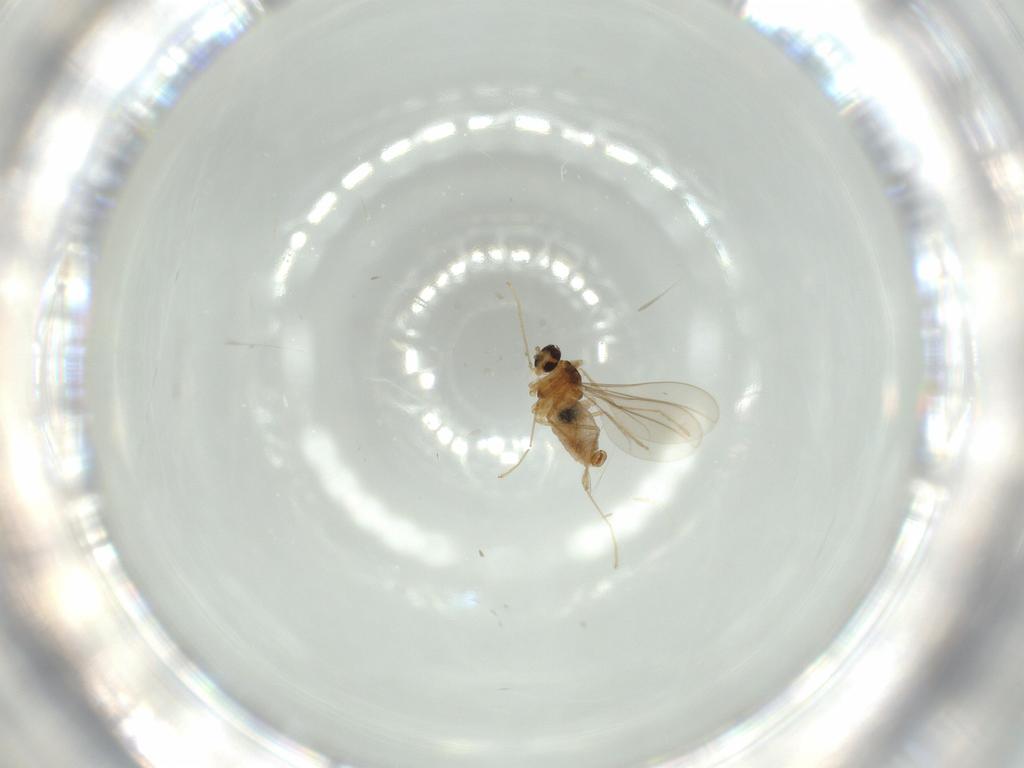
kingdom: Animalia
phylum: Arthropoda
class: Insecta
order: Diptera
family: Cecidomyiidae
